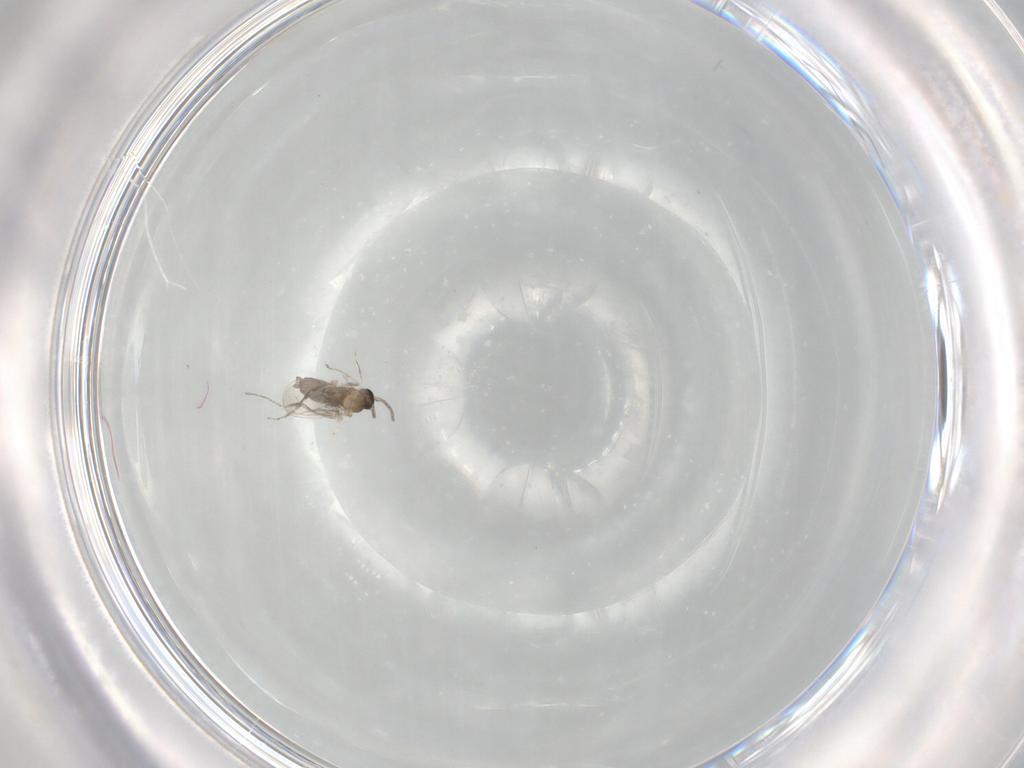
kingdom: Animalia
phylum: Arthropoda
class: Insecta
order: Diptera
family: Cecidomyiidae
